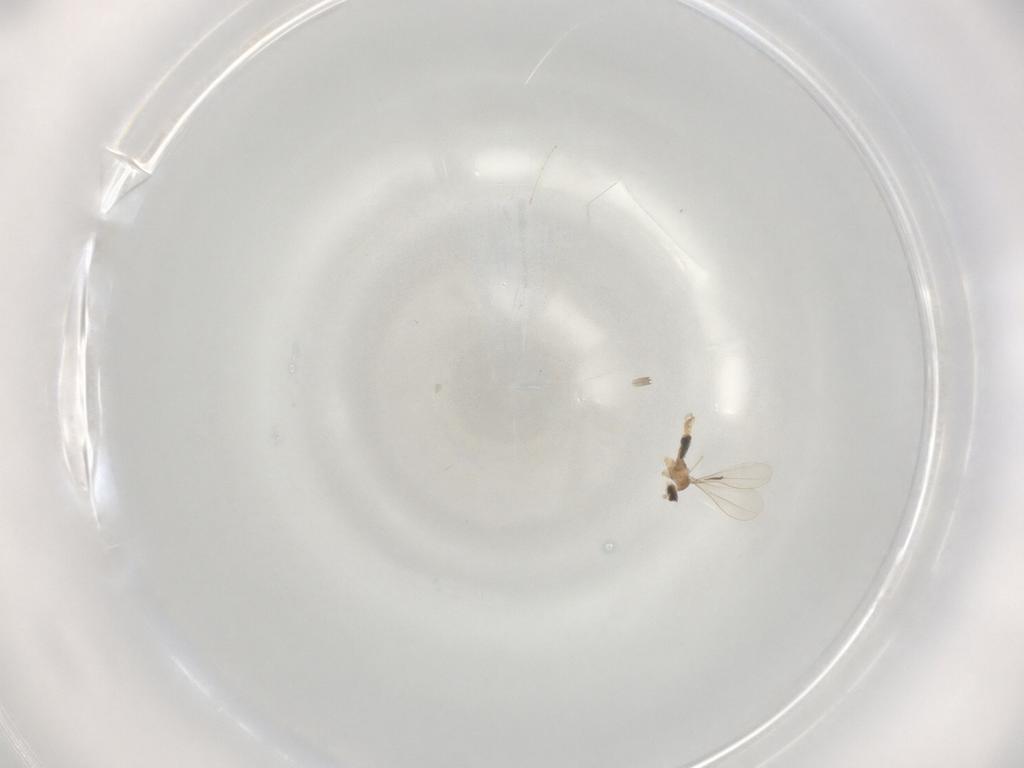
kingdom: Animalia
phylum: Arthropoda
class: Insecta
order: Diptera
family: Cecidomyiidae
